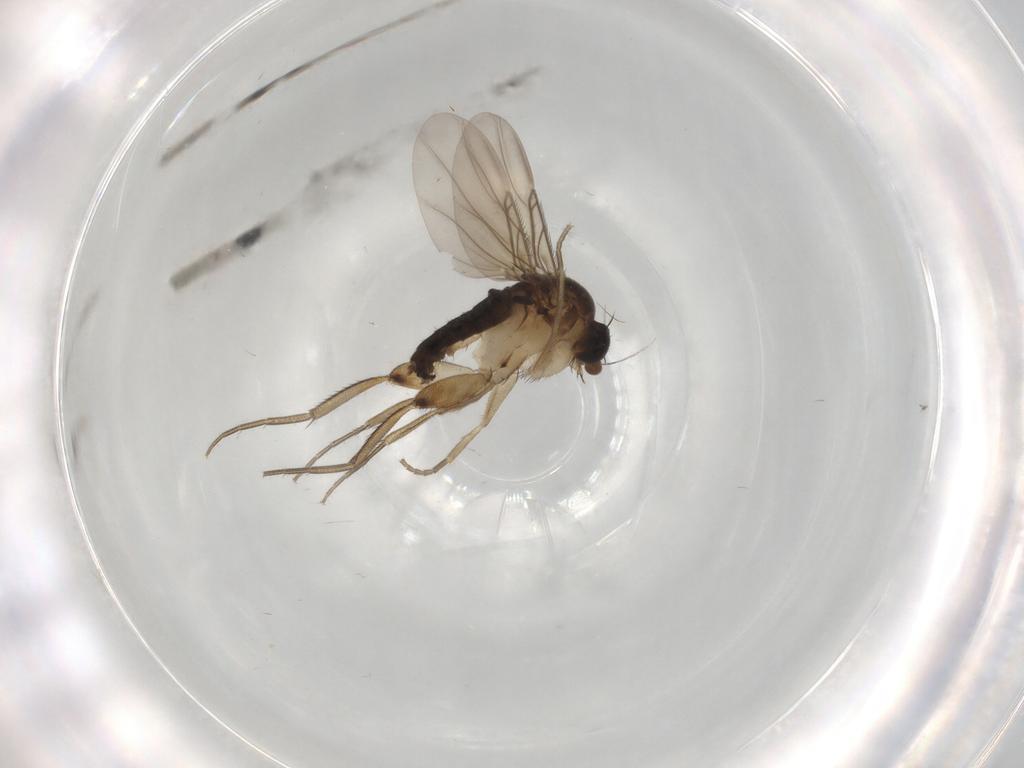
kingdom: Animalia
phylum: Arthropoda
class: Insecta
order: Diptera
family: Phoridae
